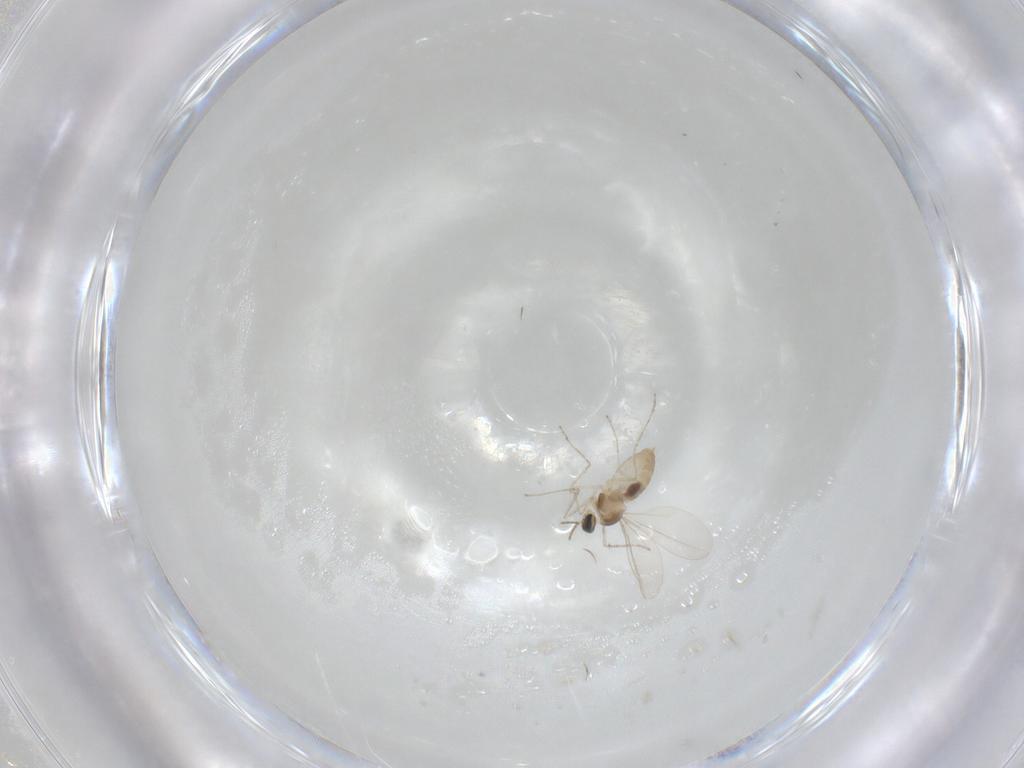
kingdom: Animalia
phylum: Arthropoda
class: Insecta
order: Diptera
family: Cecidomyiidae
